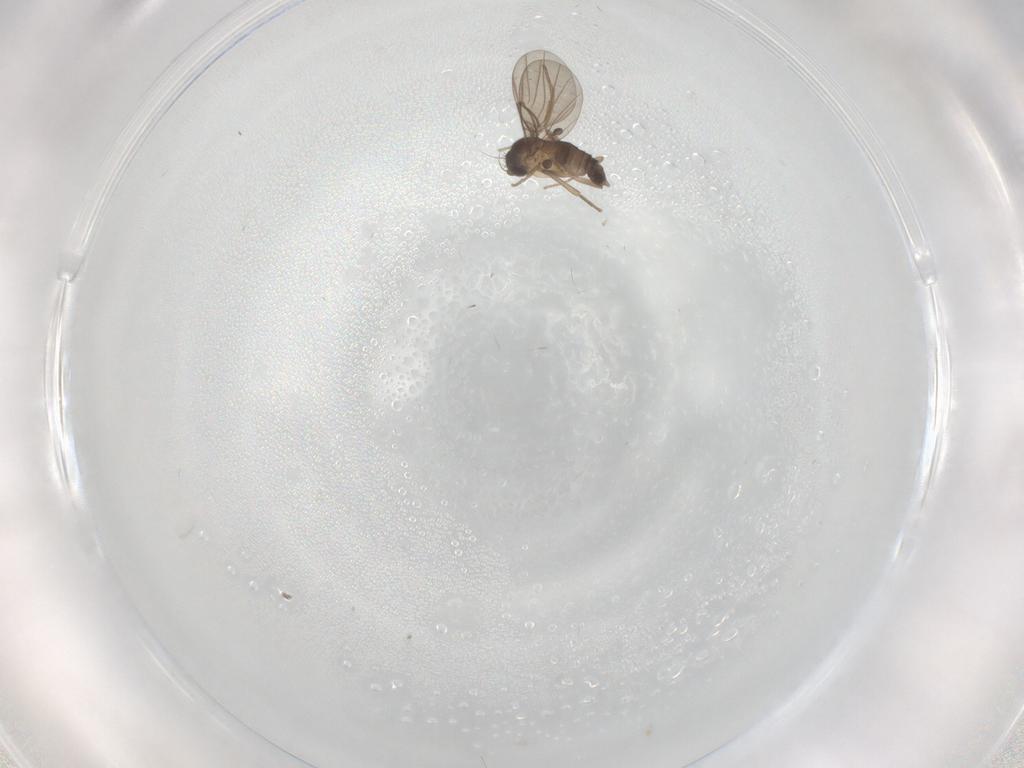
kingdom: Animalia
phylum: Arthropoda
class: Insecta
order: Diptera
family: Phoridae
